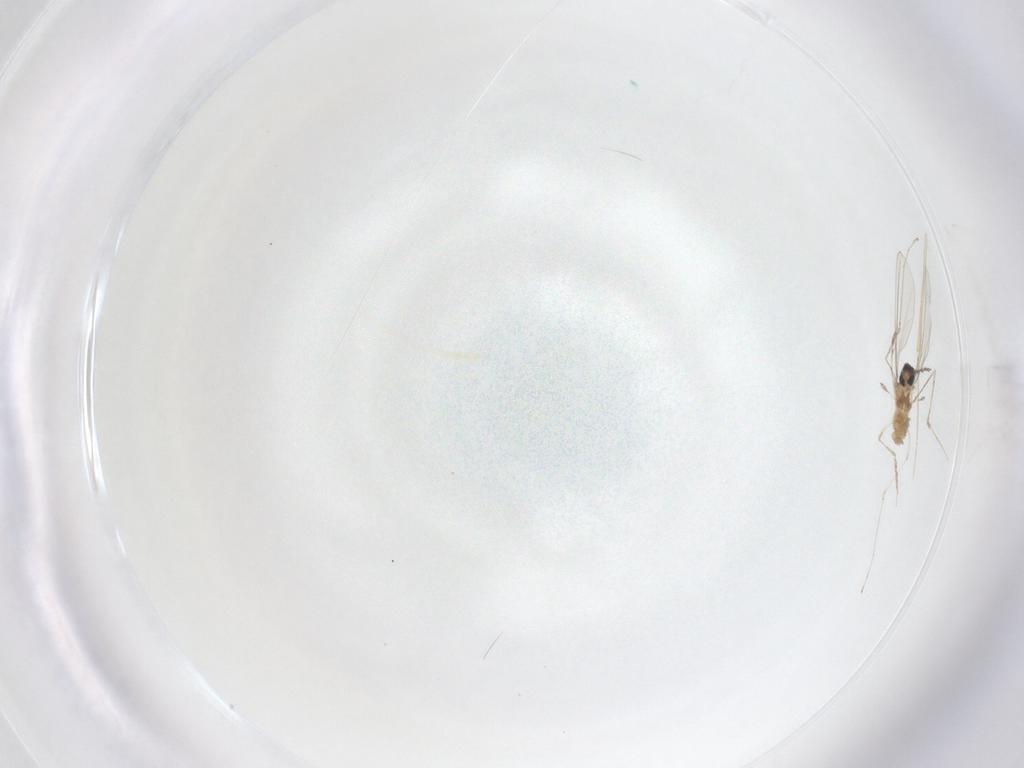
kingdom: Animalia
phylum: Arthropoda
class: Insecta
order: Diptera
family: Cecidomyiidae
